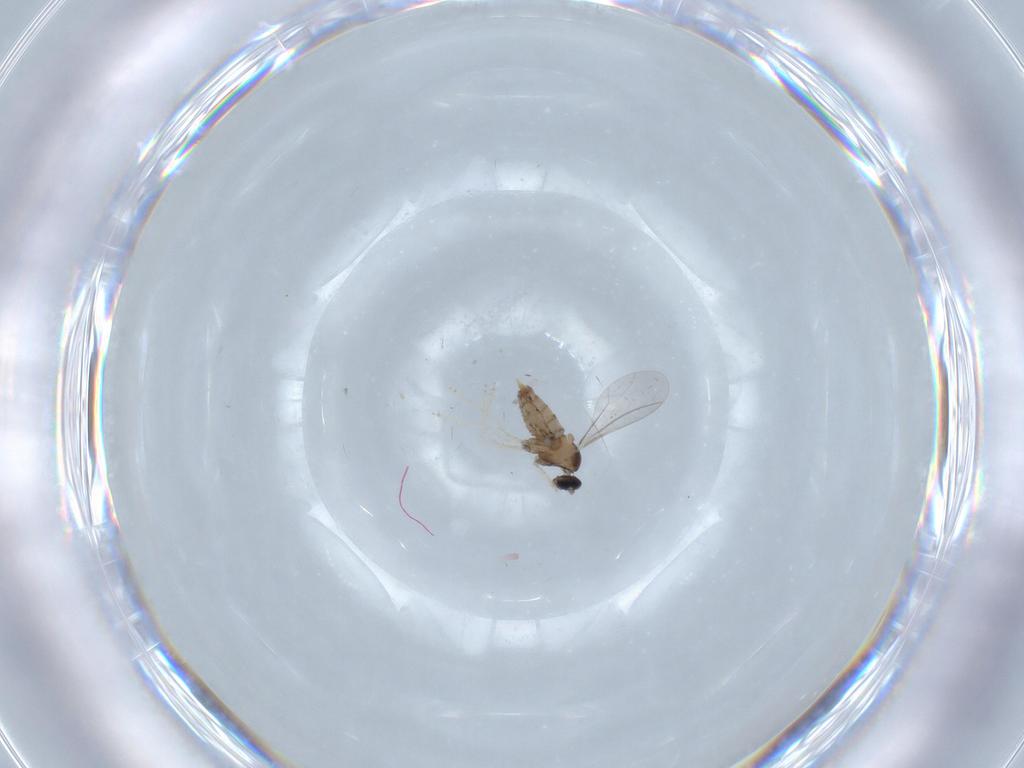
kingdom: Animalia
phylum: Arthropoda
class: Insecta
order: Diptera
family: Cecidomyiidae
